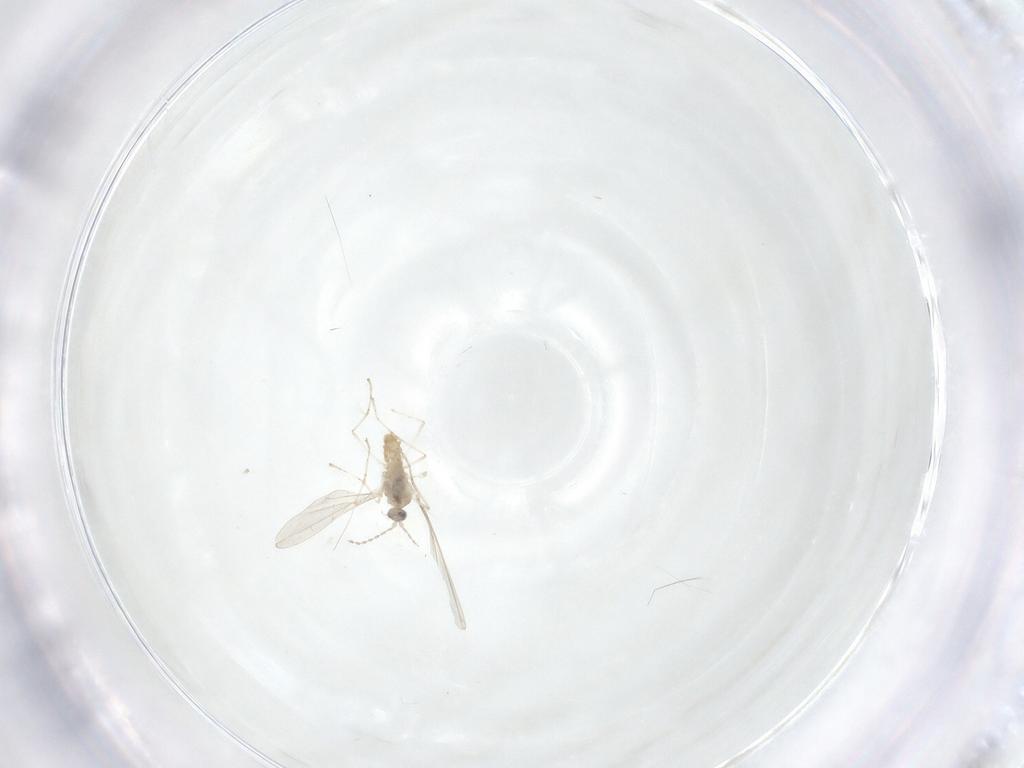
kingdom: Animalia
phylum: Arthropoda
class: Insecta
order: Diptera
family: Cecidomyiidae
